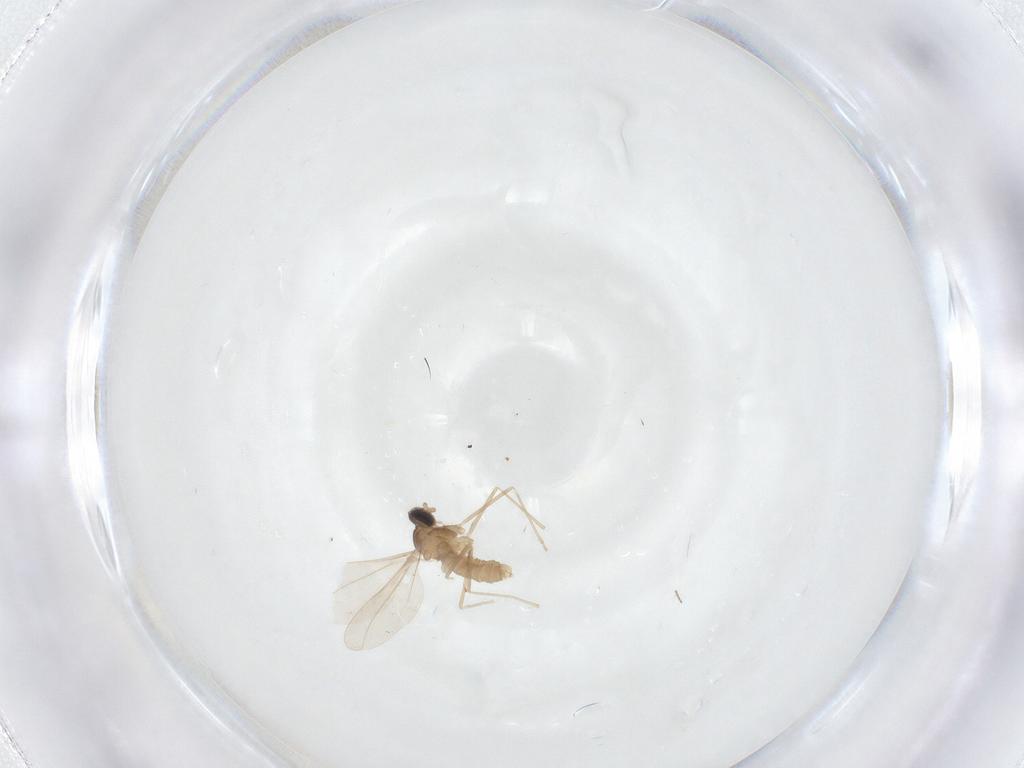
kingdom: Animalia
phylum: Arthropoda
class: Insecta
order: Diptera
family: Cecidomyiidae
